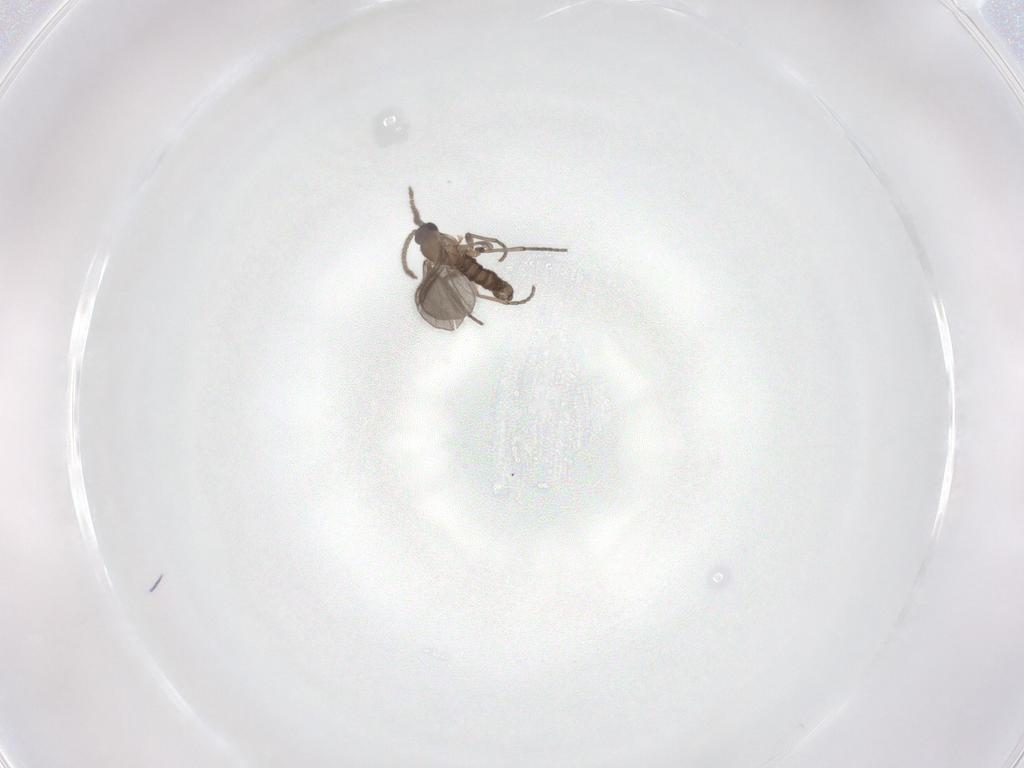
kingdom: Animalia
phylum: Arthropoda
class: Insecta
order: Diptera
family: Sciaridae
